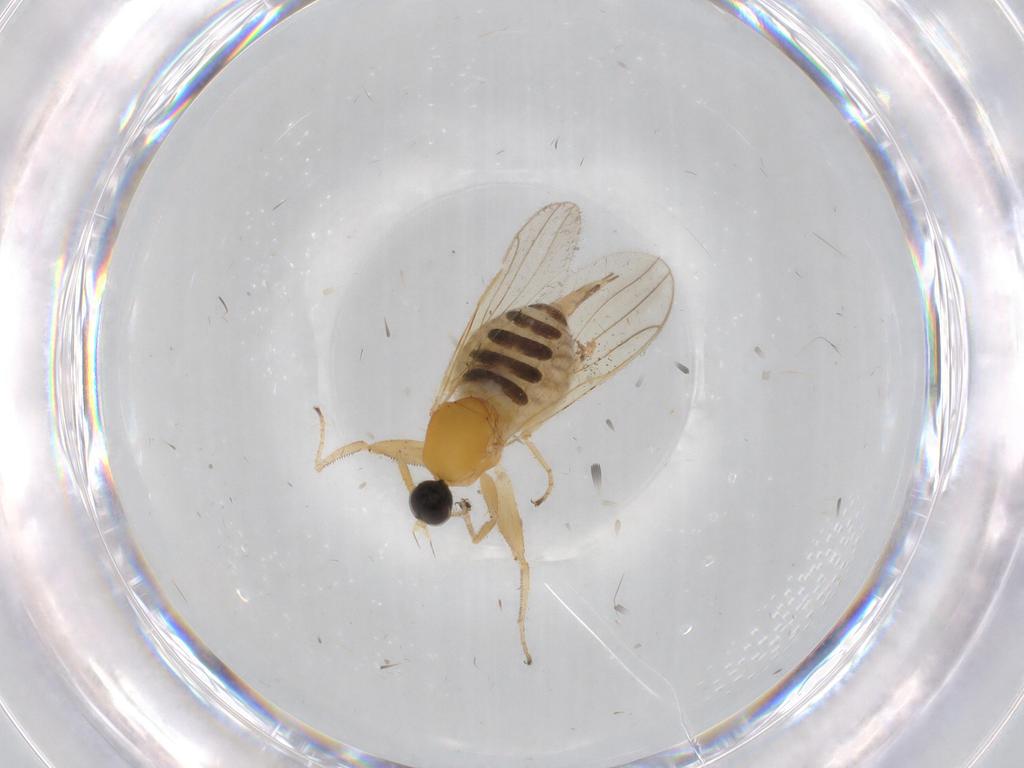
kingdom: Animalia
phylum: Arthropoda
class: Insecta
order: Diptera
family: Hybotidae
